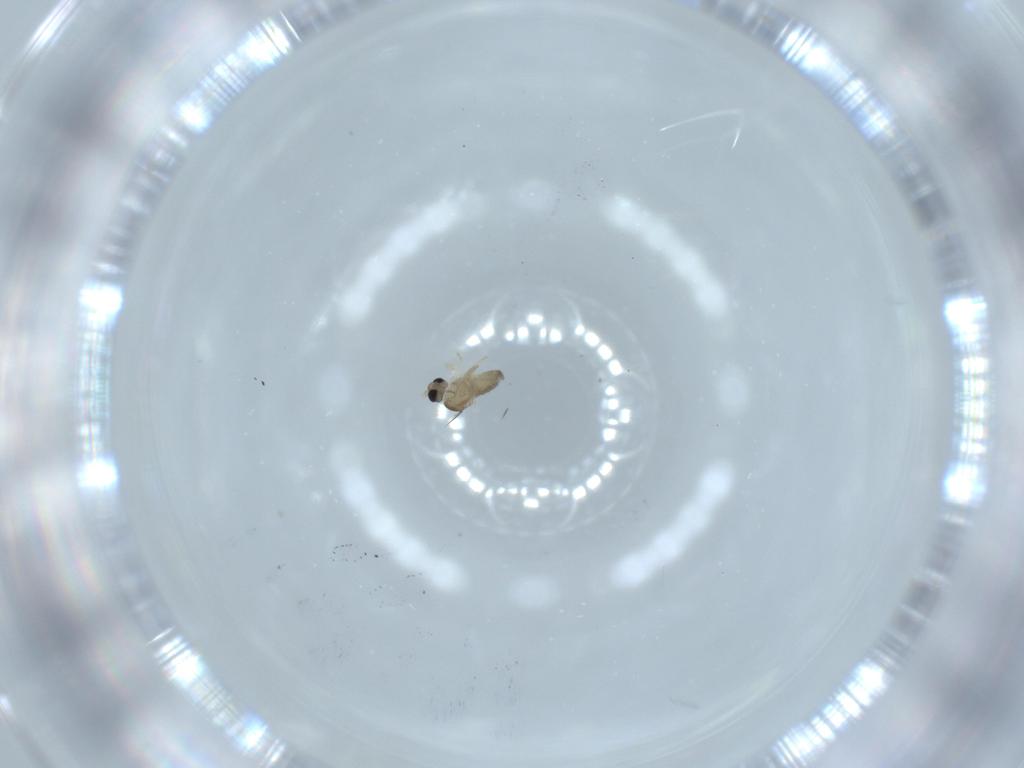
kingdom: Animalia
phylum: Arthropoda
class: Insecta
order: Diptera
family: Cecidomyiidae
